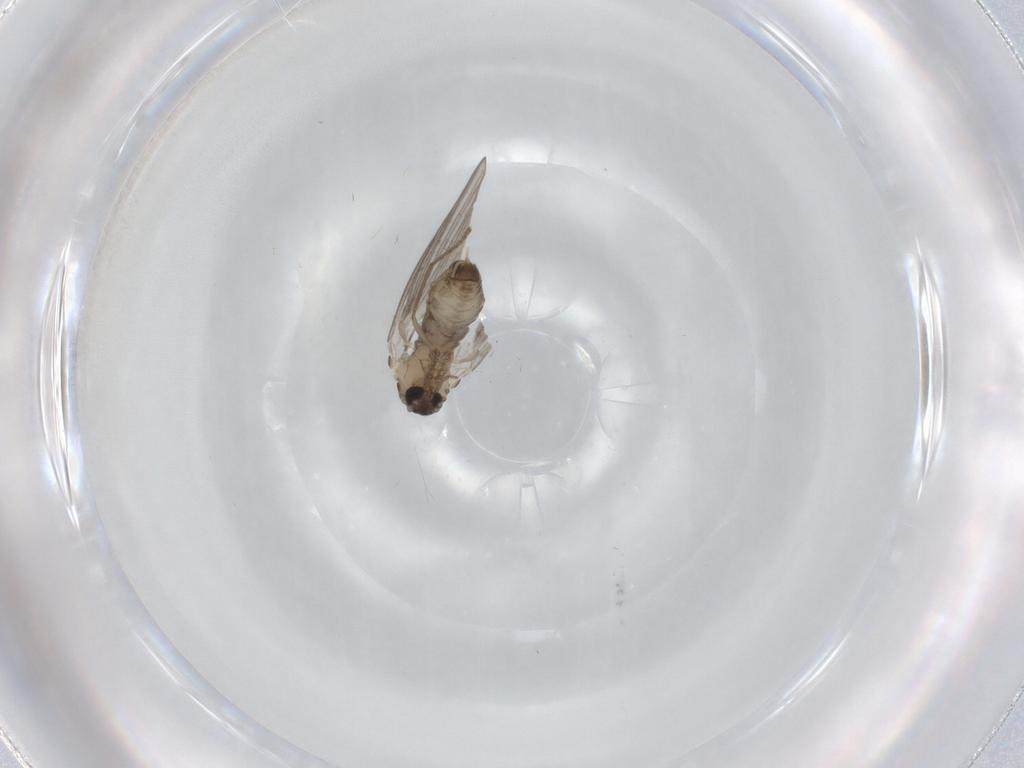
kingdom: Animalia
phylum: Arthropoda
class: Insecta
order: Diptera
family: Psychodidae
